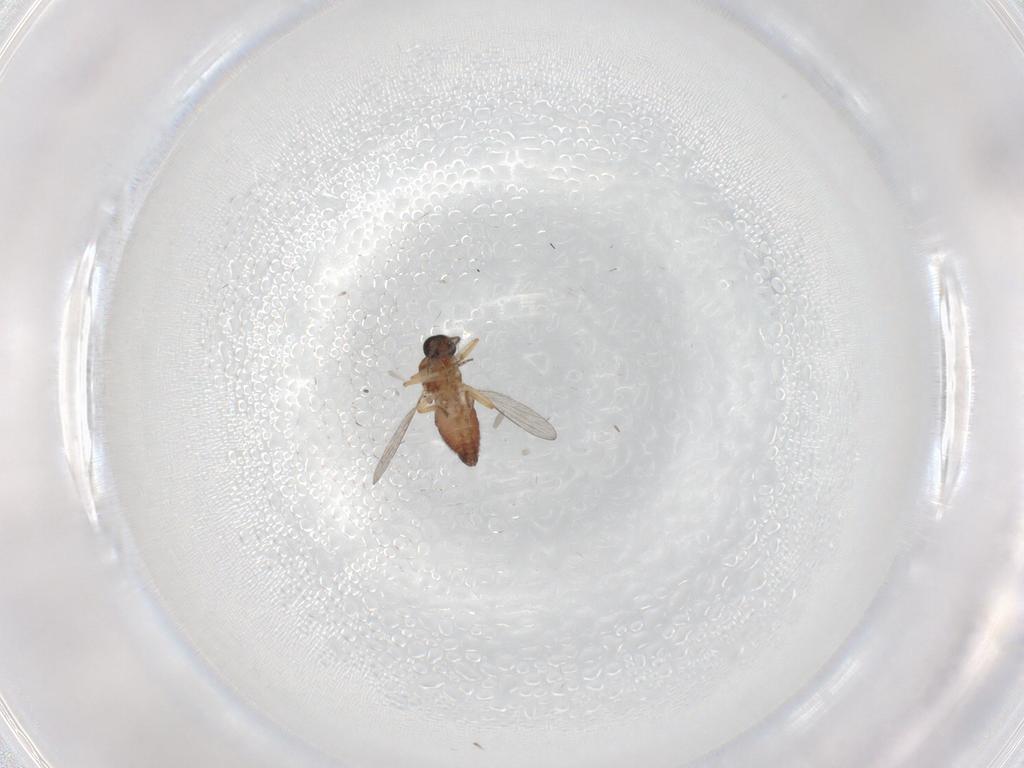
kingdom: Animalia
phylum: Arthropoda
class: Insecta
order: Diptera
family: Ceratopogonidae
